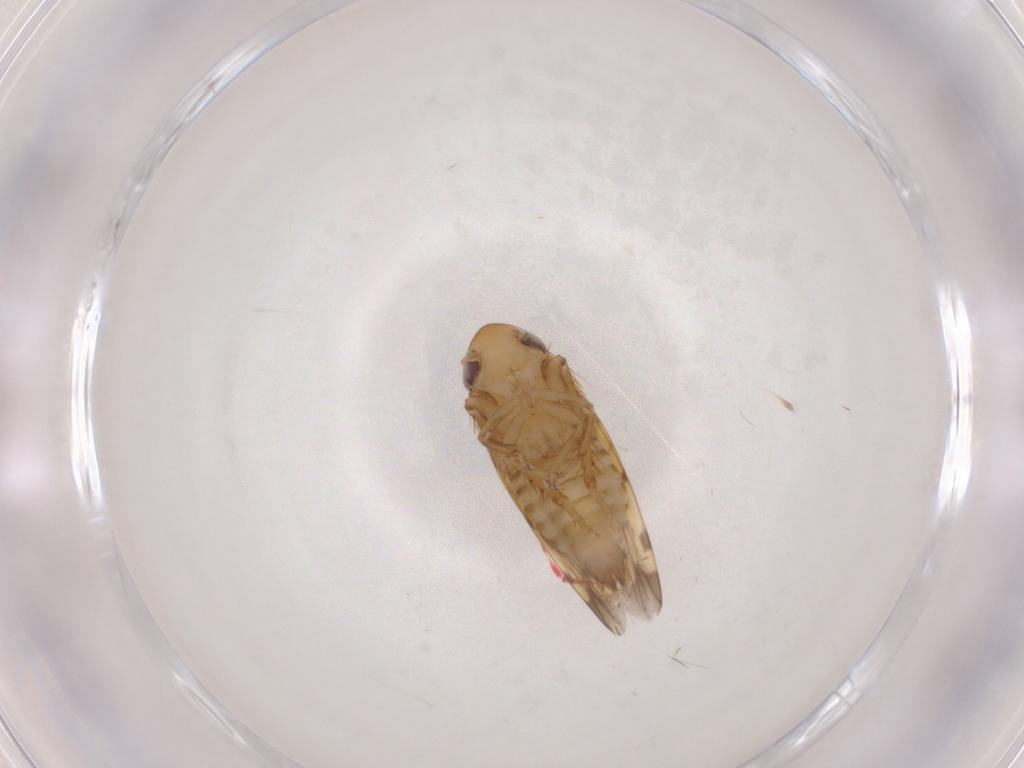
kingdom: Animalia
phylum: Arthropoda
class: Insecta
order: Hemiptera
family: Cicadellidae
